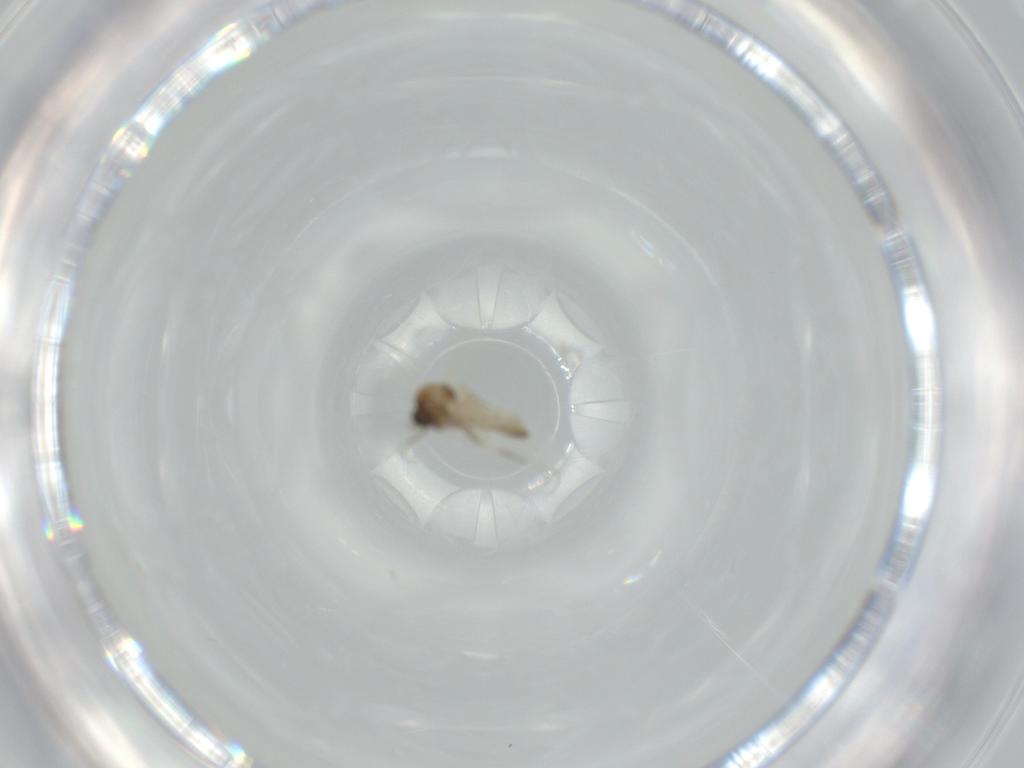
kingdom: Animalia
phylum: Arthropoda
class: Insecta
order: Diptera
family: Ceratopogonidae
